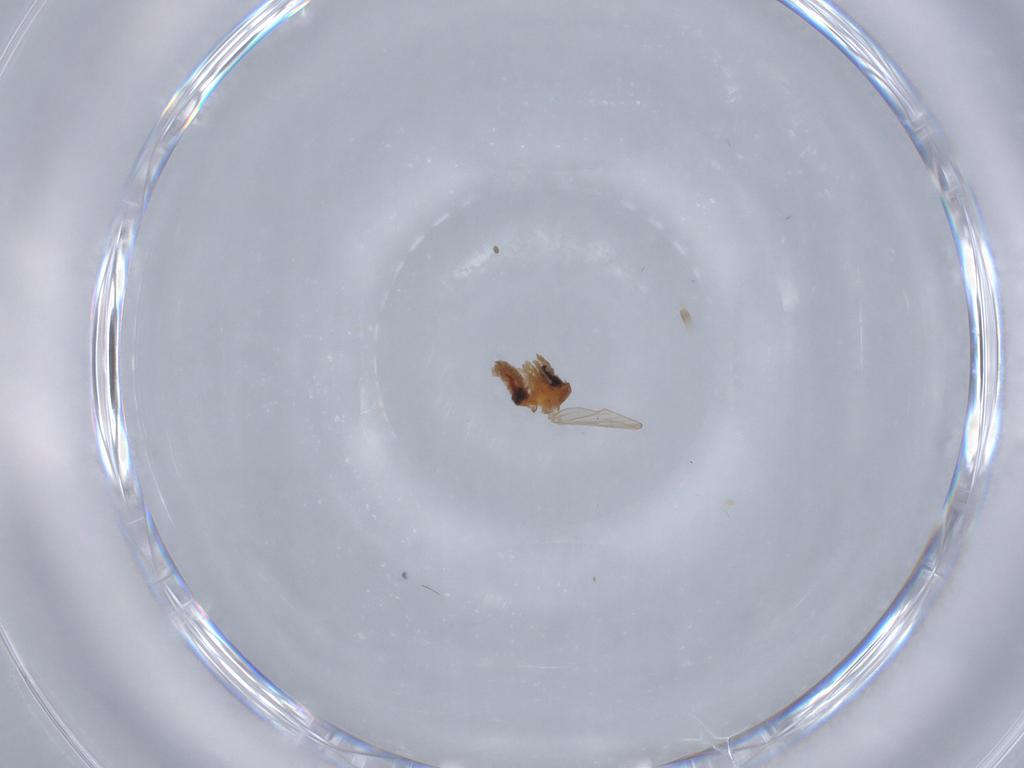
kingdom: Animalia
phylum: Arthropoda
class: Insecta
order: Diptera
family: Psychodidae
